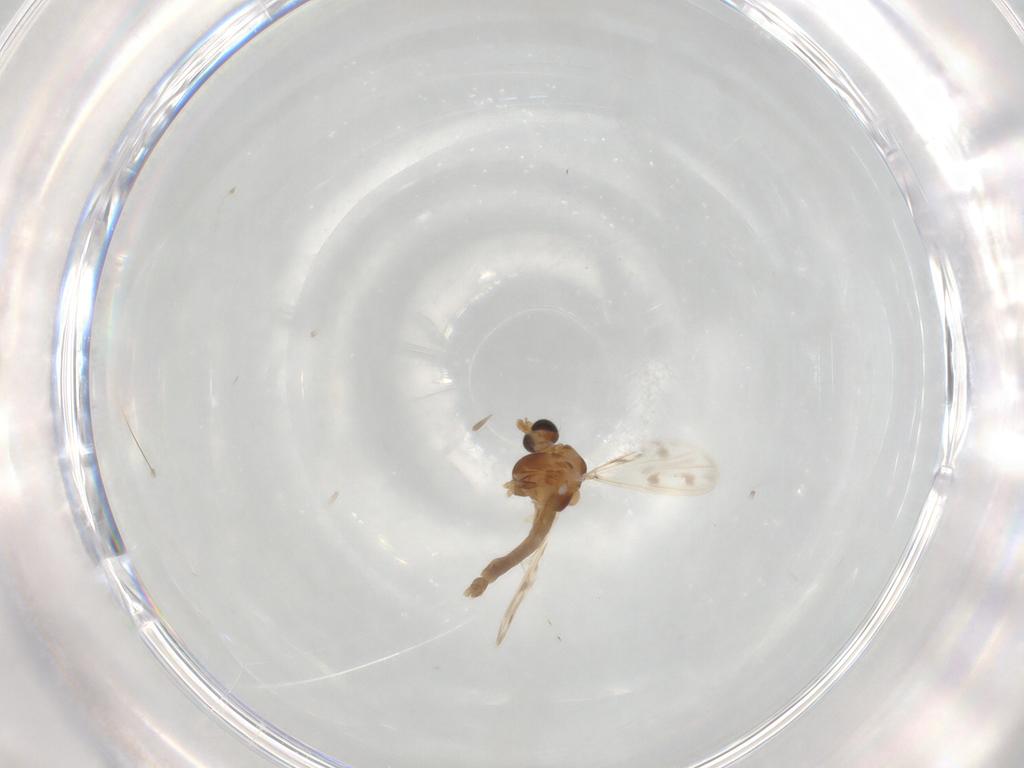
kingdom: Animalia
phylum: Arthropoda
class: Insecta
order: Diptera
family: Chironomidae
